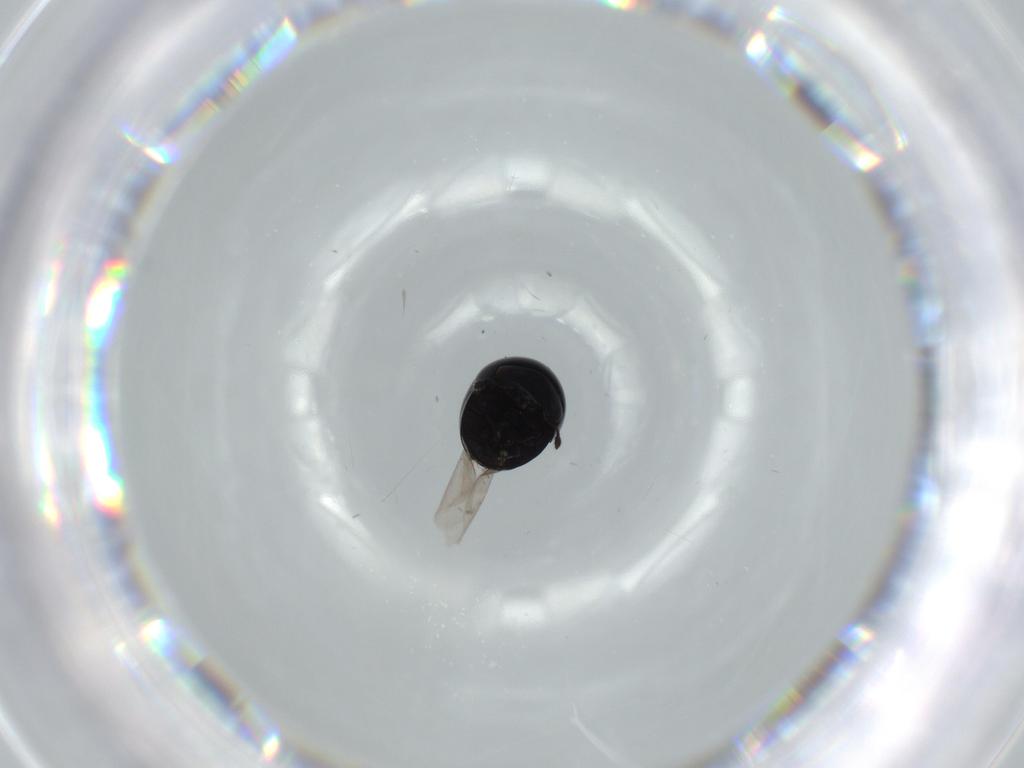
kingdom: Animalia
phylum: Arthropoda
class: Insecta
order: Coleoptera
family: Cybocephalidae
